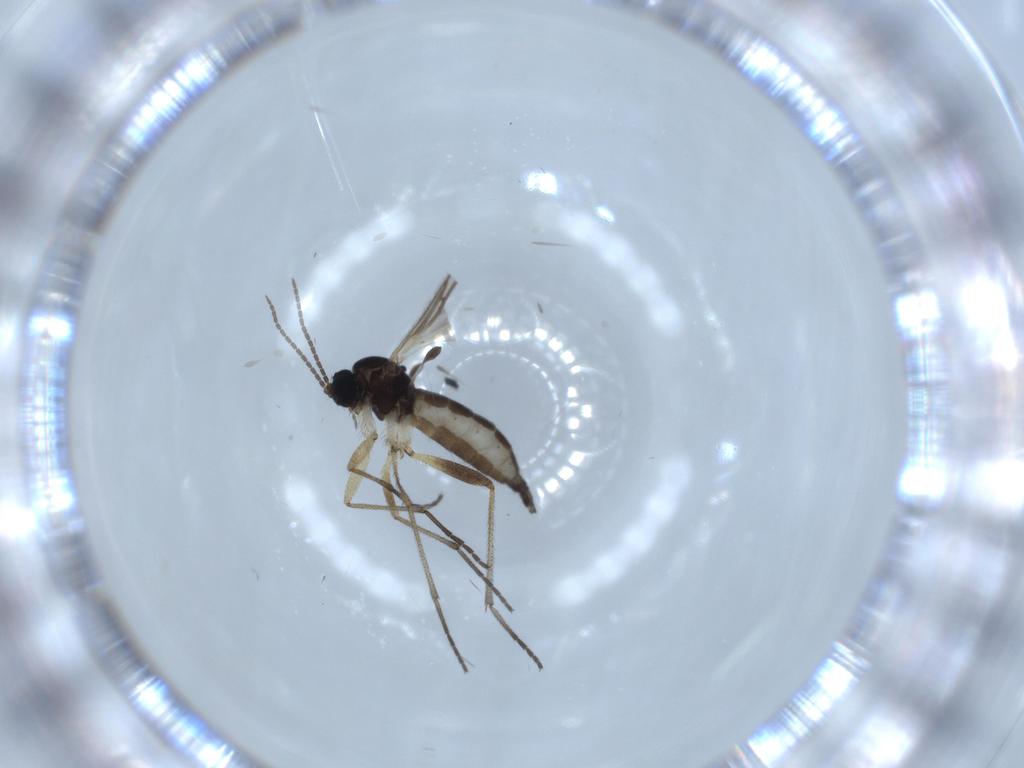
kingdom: Animalia
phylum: Arthropoda
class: Insecta
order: Diptera
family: Sciaridae
